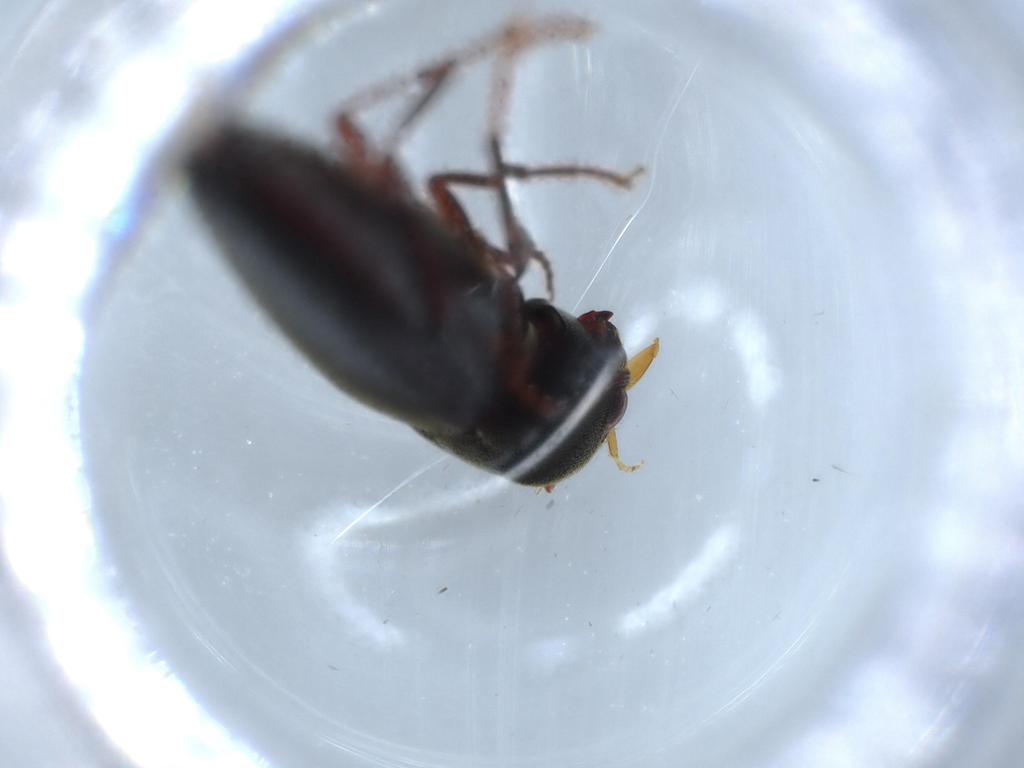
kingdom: Animalia
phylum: Arthropoda
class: Insecta
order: Coleoptera
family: Eucnemidae
